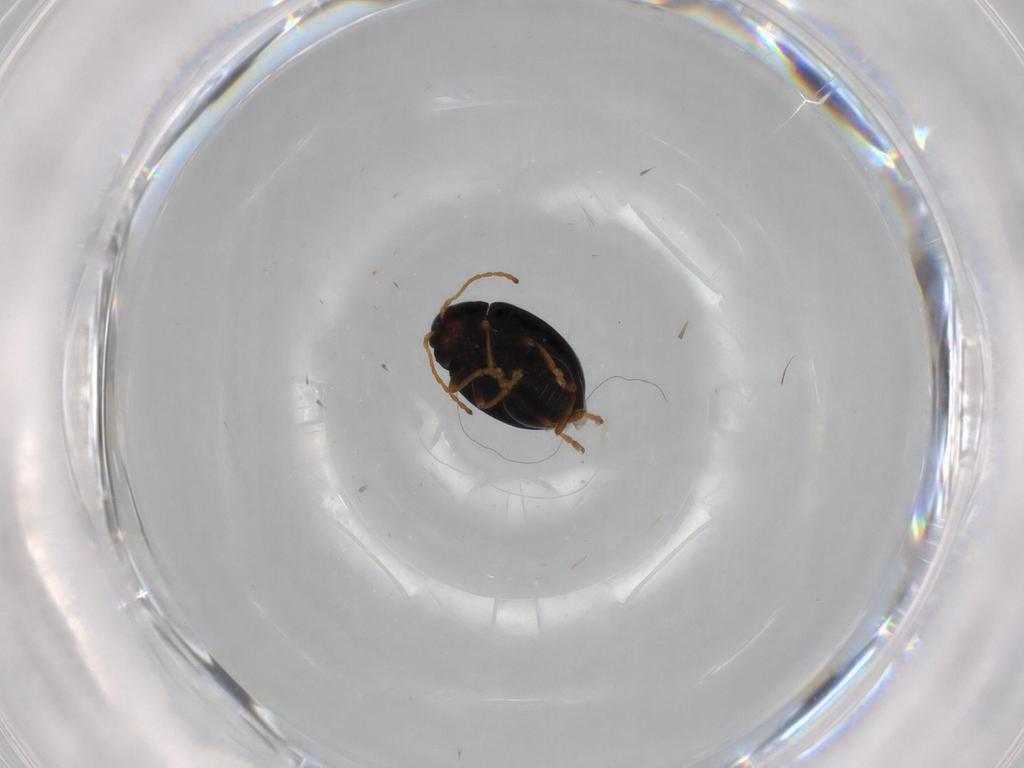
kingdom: Animalia
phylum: Arthropoda
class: Insecta
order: Coleoptera
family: Chrysomelidae
